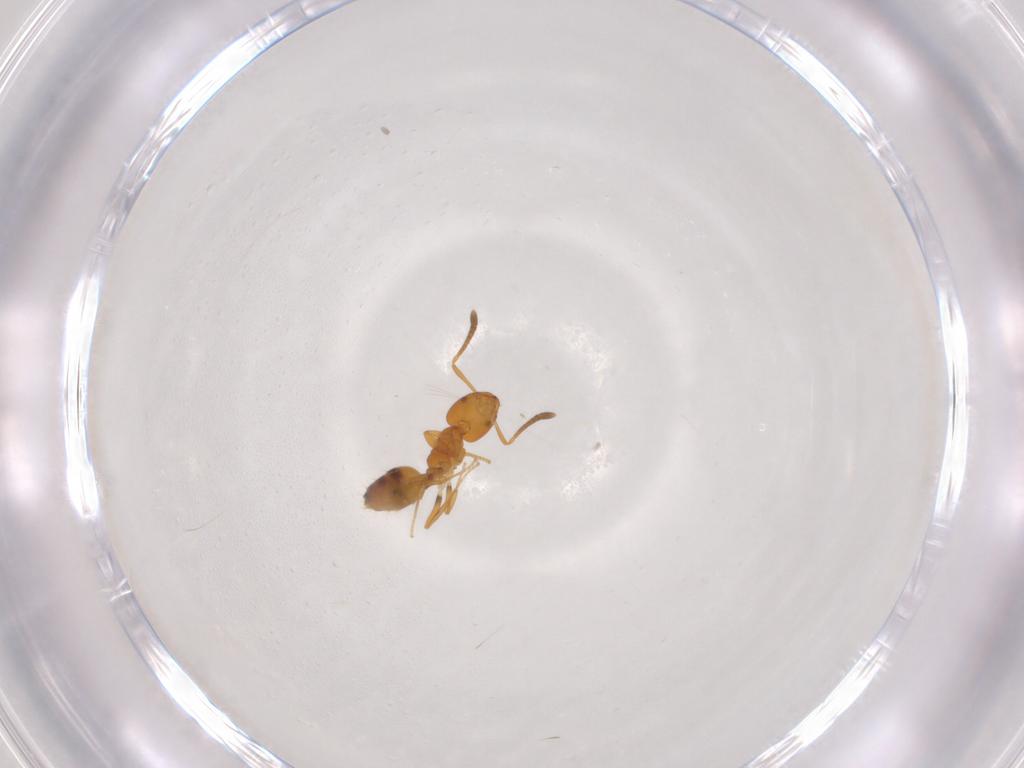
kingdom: Animalia
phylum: Arthropoda
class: Insecta
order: Hymenoptera
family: Formicidae
